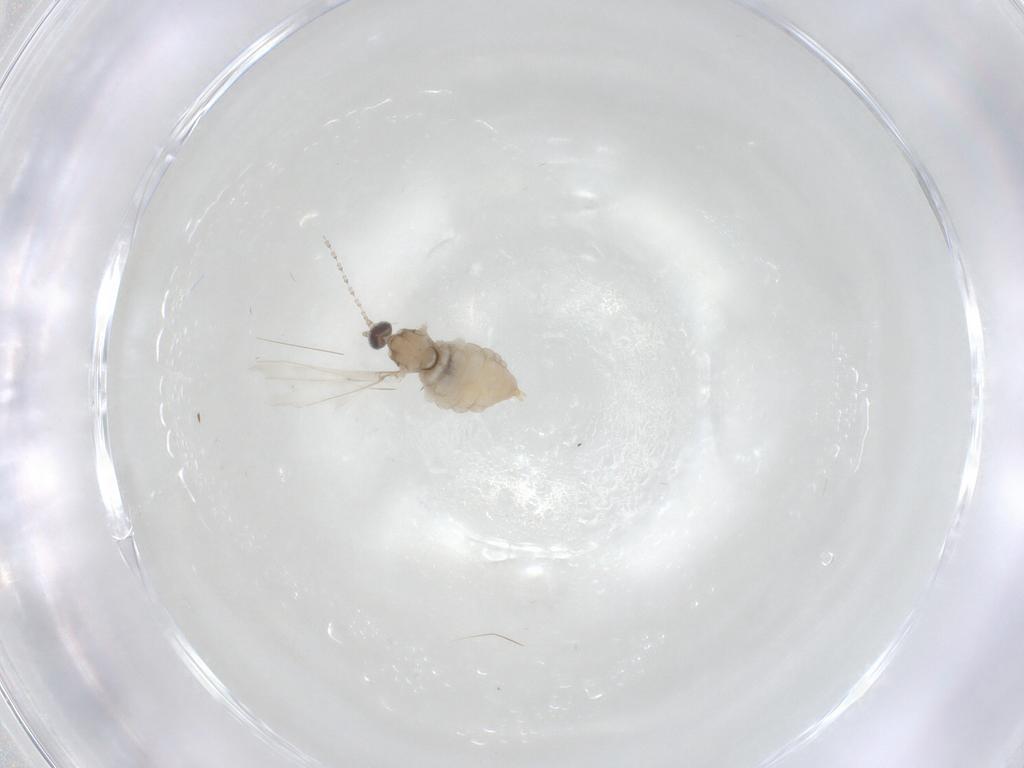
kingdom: Animalia
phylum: Arthropoda
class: Insecta
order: Diptera
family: Cecidomyiidae
